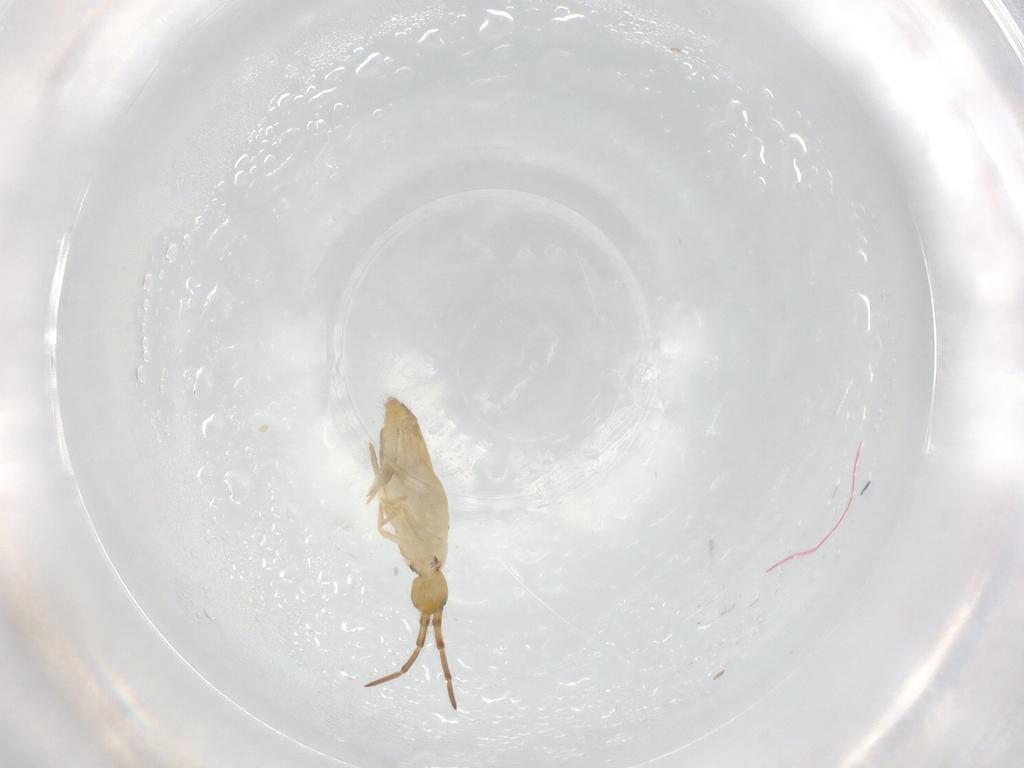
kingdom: Animalia
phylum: Arthropoda
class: Collembola
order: Entomobryomorpha
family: Entomobryidae
